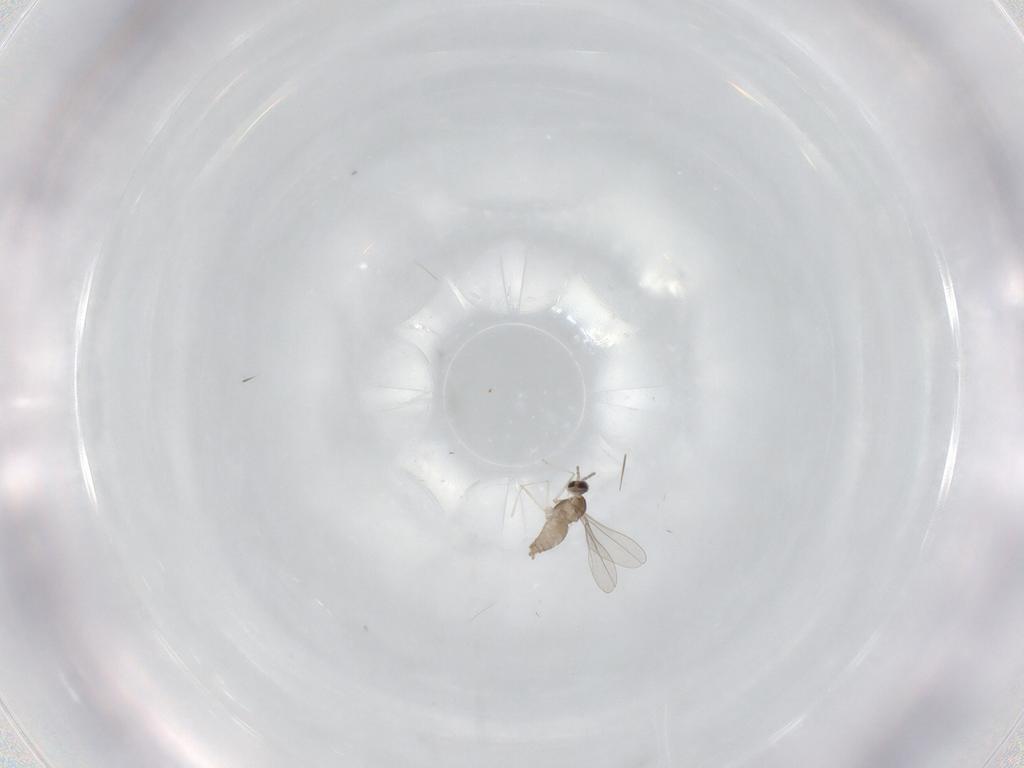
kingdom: Animalia
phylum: Arthropoda
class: Insecta
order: Diptera
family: Cecidomyiidae
